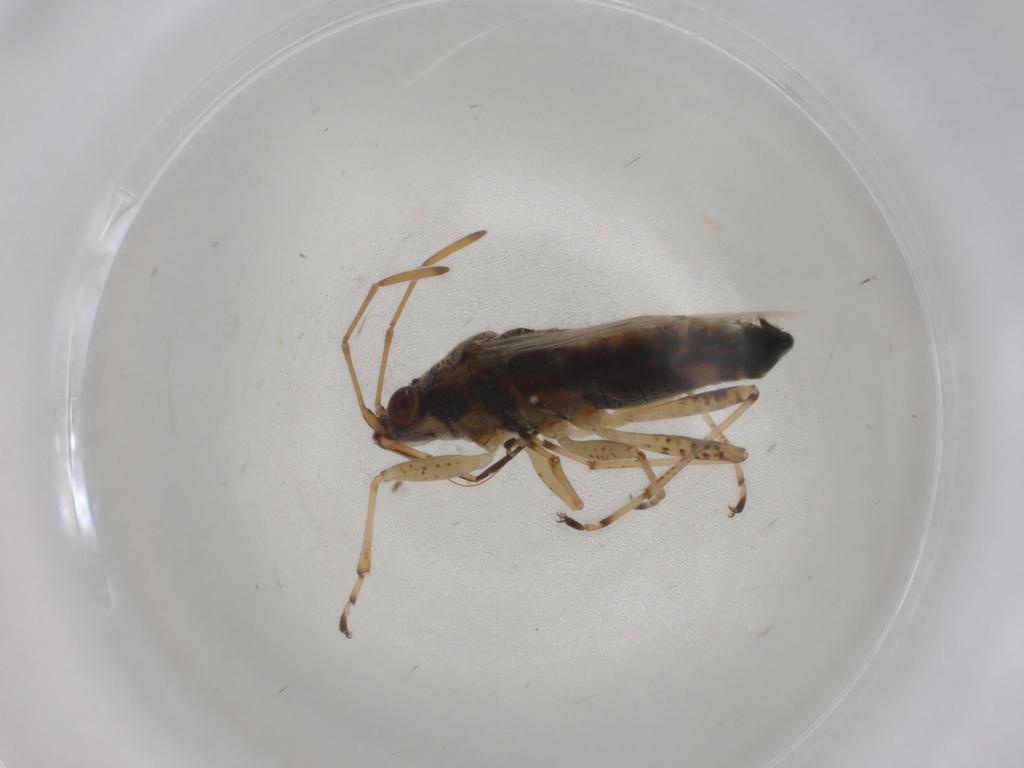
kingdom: Animalia
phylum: Arthropoda
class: Insecta
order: Hemiptera
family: Lygaeidae
